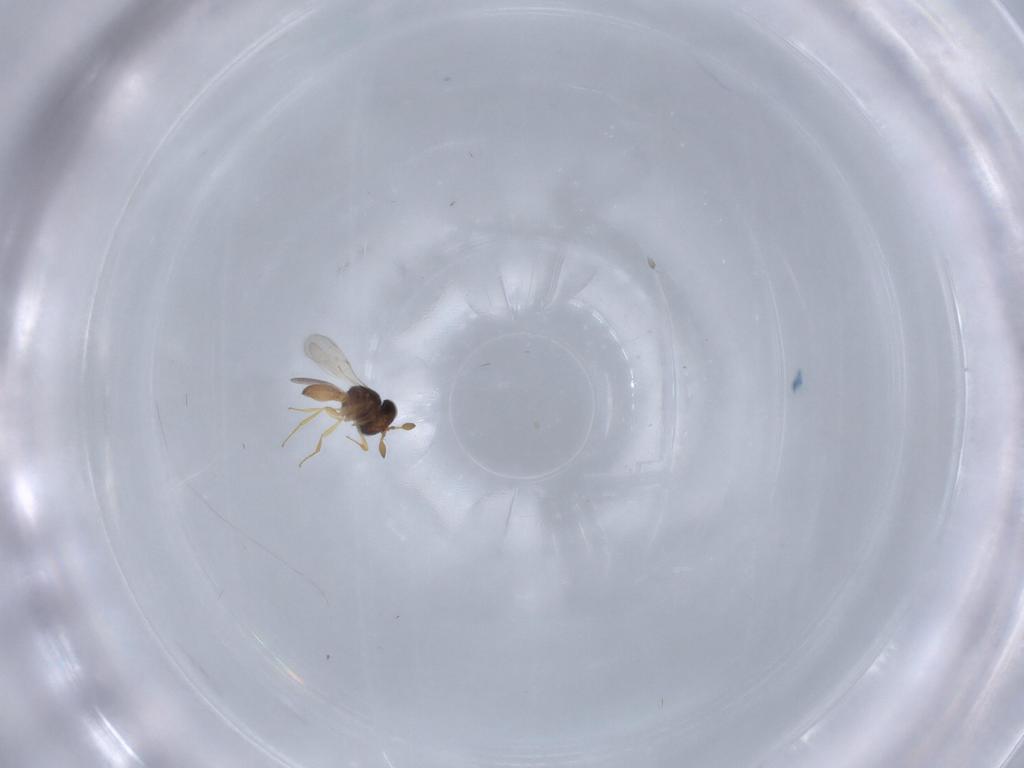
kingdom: Animalia
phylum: Arthropoda
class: Insecta
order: Hymenoptera
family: Scelionidae
